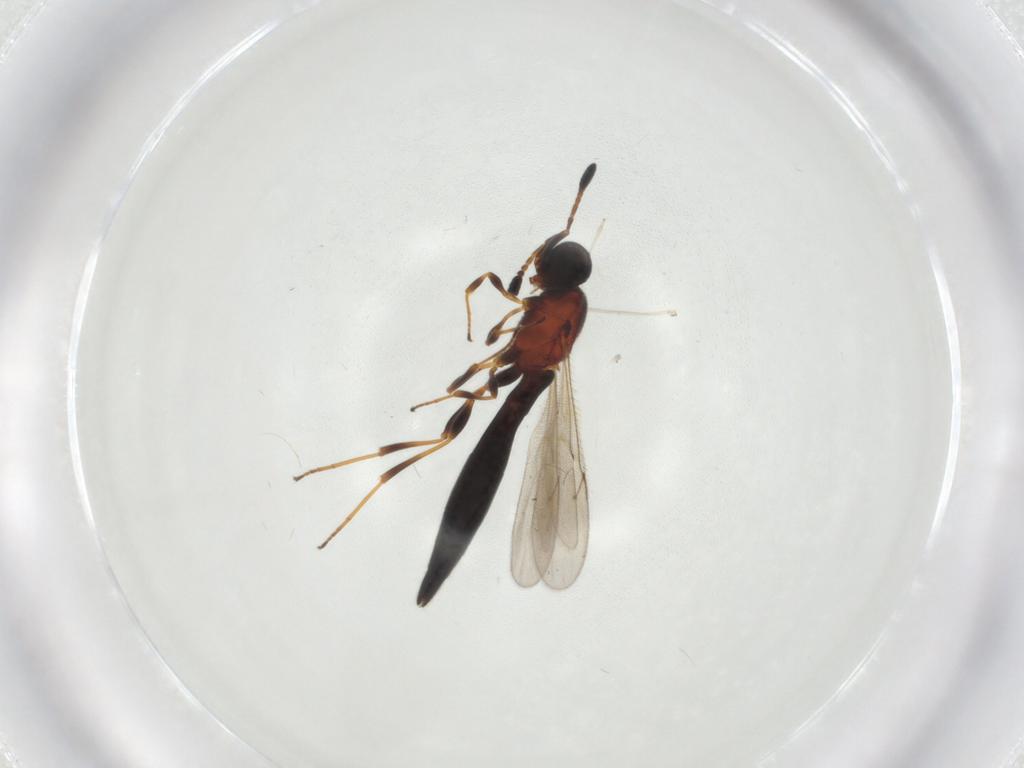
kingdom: Animalia
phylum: Arthropoda
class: Insecta
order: Hymenoptera
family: Scelionidae
